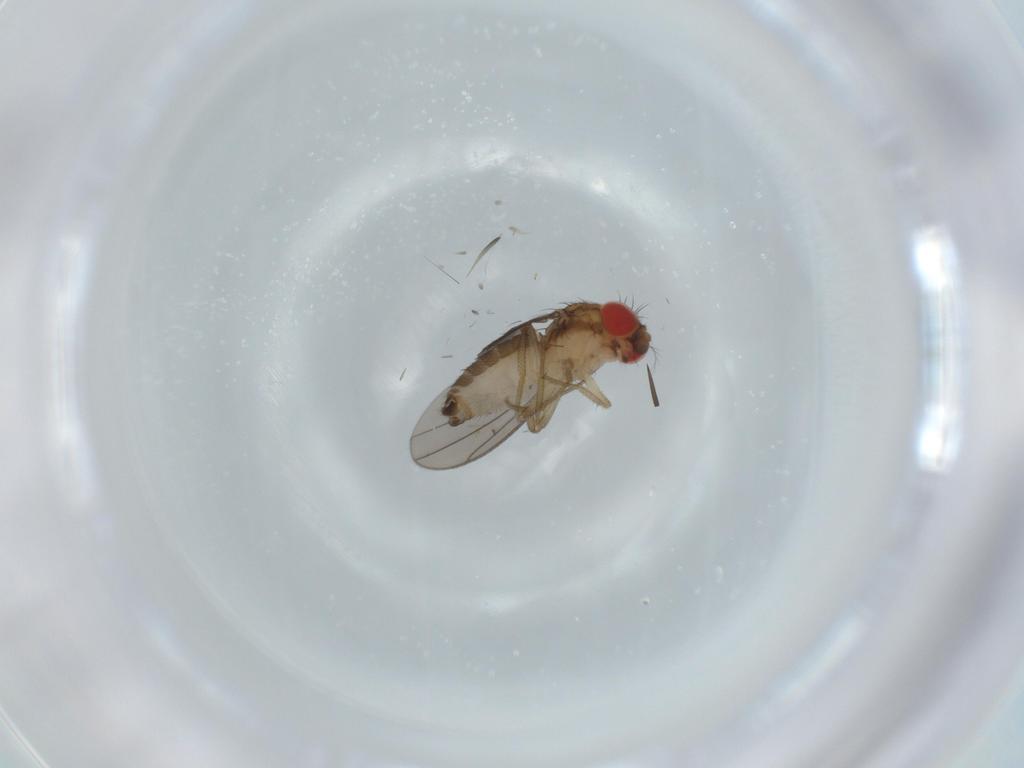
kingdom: Animalia
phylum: Arthropoda
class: Insecta
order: Diptera
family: Drosophilidae
